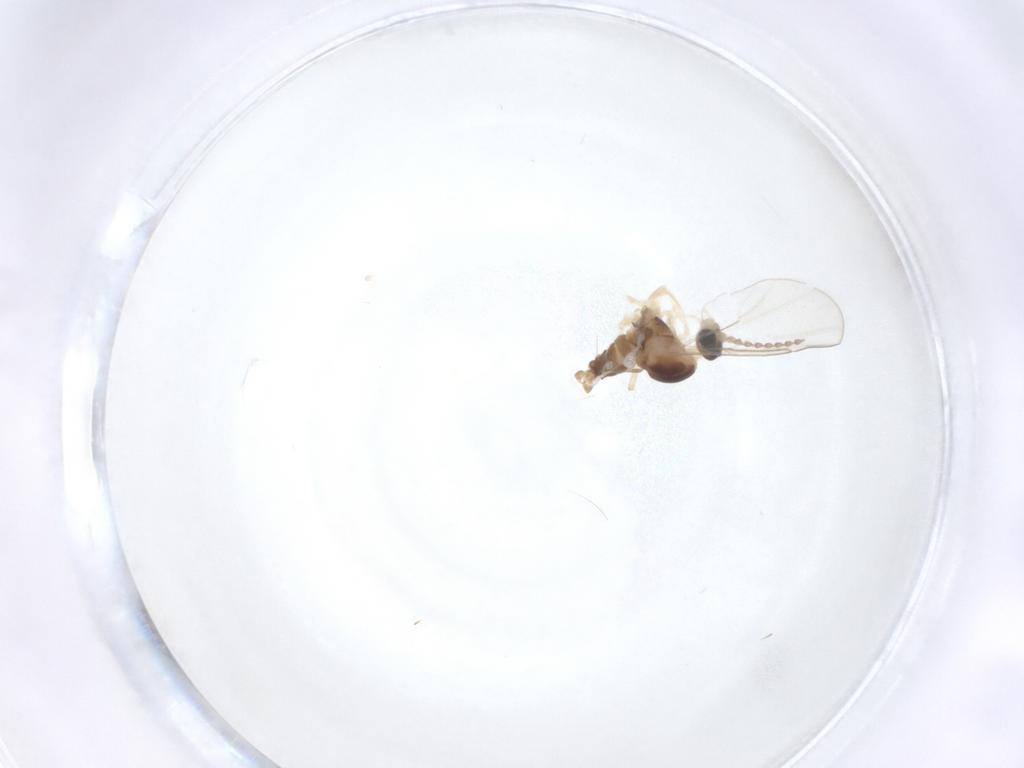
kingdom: Animalia
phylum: Arthropoda
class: Insecta
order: Diptera
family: Cecidomyiidae
